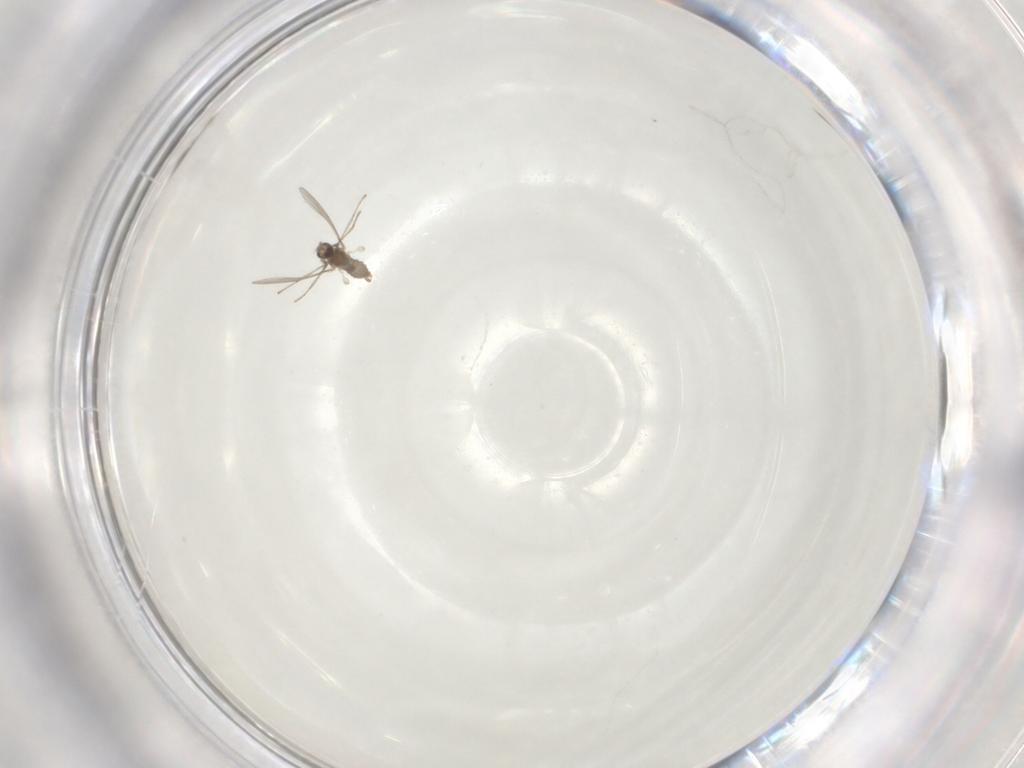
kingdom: Animalia
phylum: Arthropoda
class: Insecta
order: Diptera
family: Cecidomyiidae
